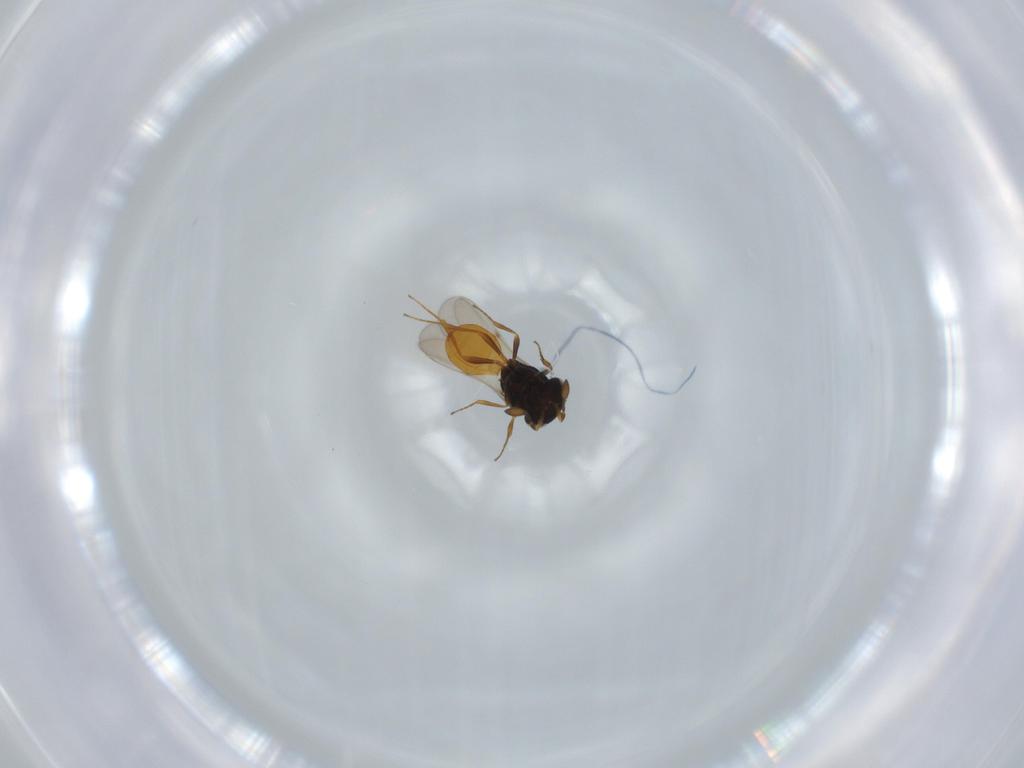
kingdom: Animalia
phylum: Arthropoda
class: Insecta
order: Hymenoptera
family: Scelionidae
